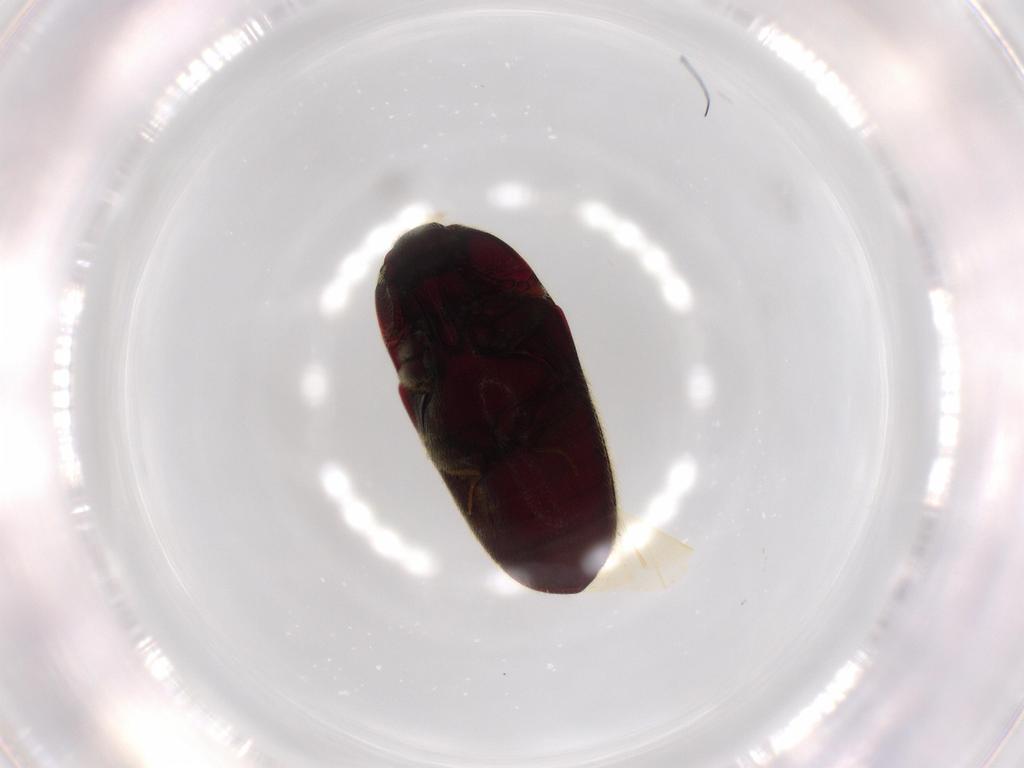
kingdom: Animalia
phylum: Arthropoda
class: Insecta
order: Coleoptera
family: Throscidae
